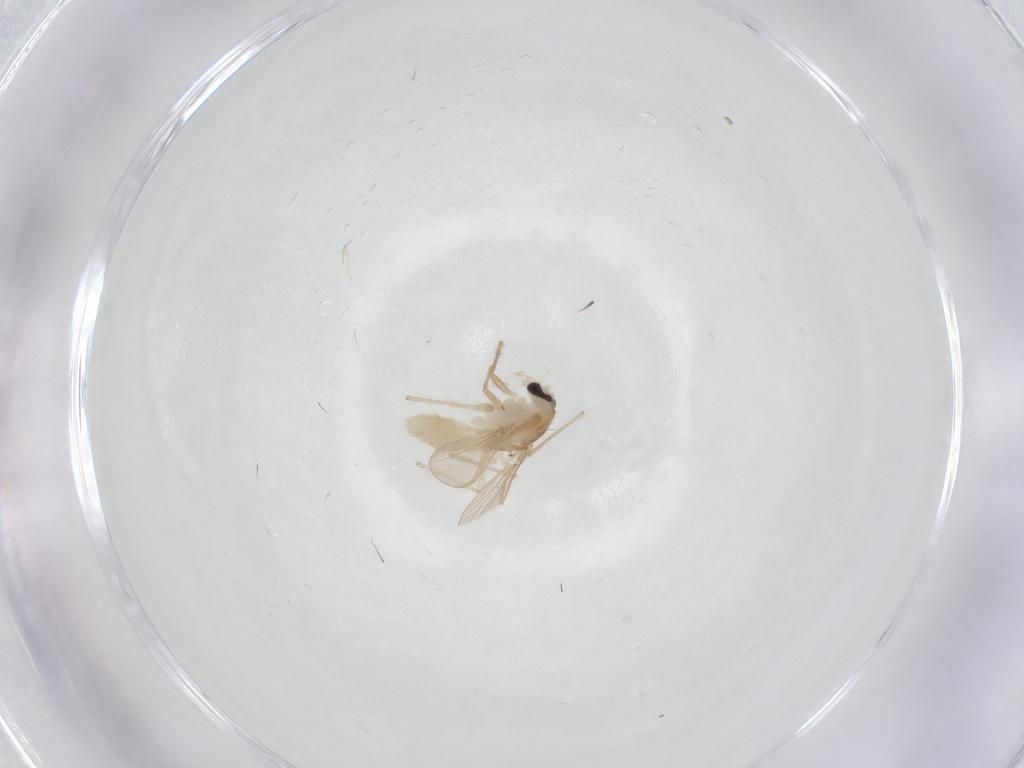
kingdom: Animalia
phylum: Arthropoda
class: Insecta
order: Diptera
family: Chironomidae
